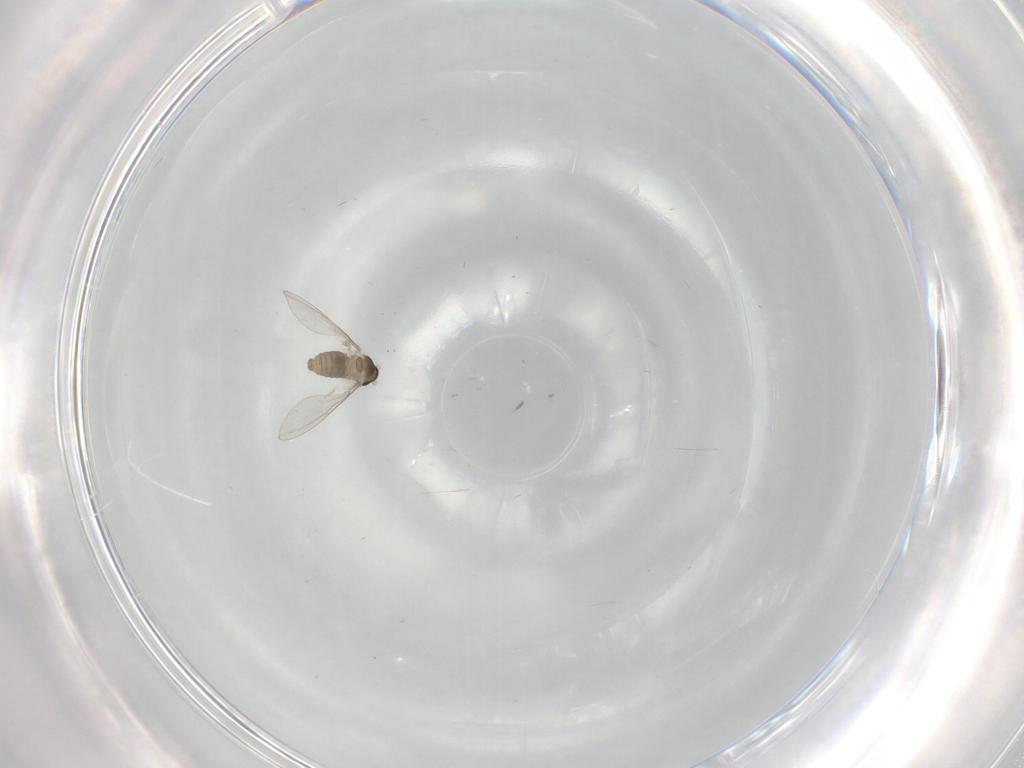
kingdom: Animalia
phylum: Arthropoda
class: Insecta
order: Diptera
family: Cecidomyiidae
